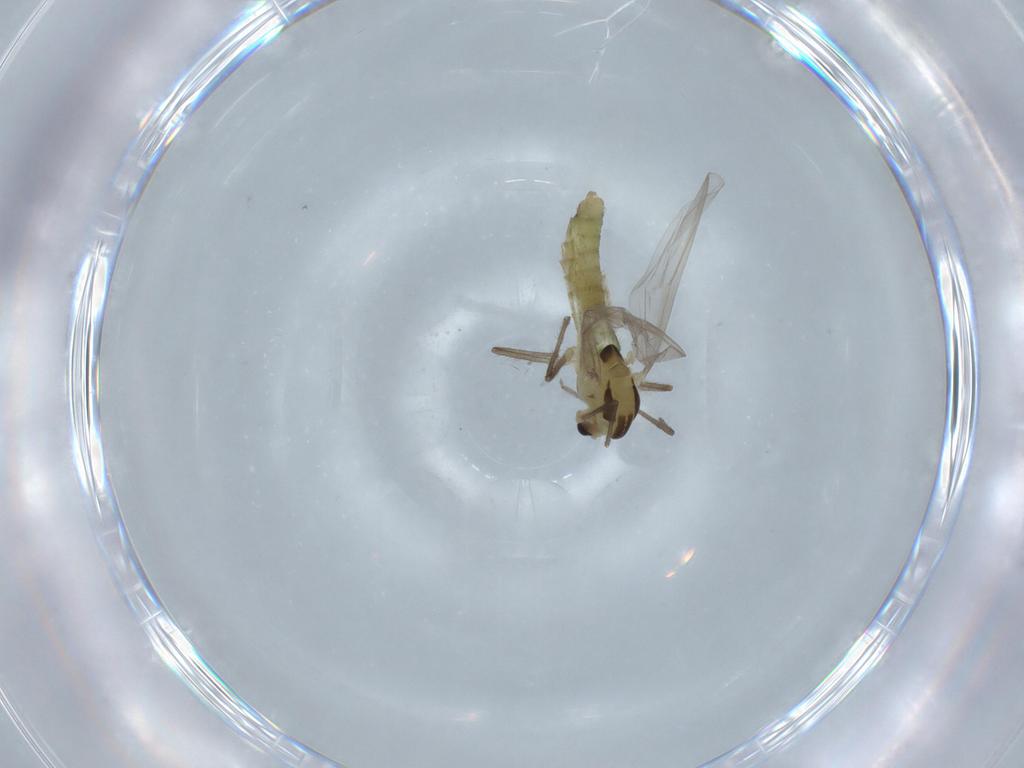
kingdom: Animalia
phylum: Arthropoda
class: Insecta
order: Diptera
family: Chironomidae
